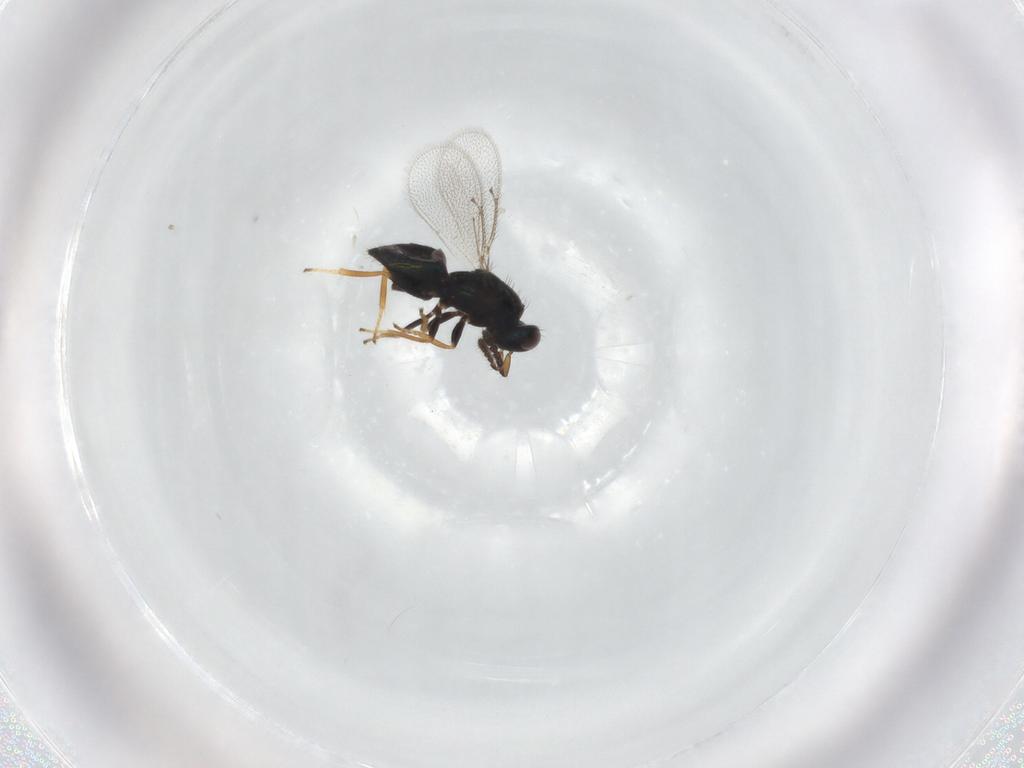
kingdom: Animalia
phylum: Arthropoda
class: Insecta
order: Hymenoptera
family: Eulophidae
